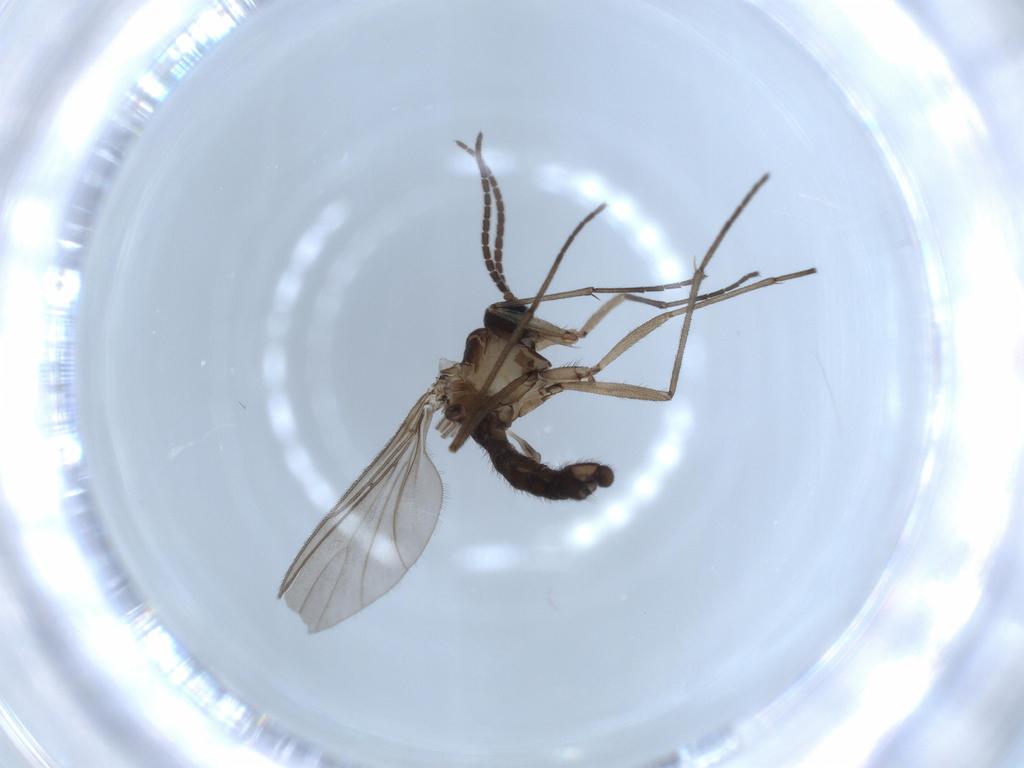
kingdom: Animalia
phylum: Arthropoda
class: Insecta
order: Diptera
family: Sciaridae
